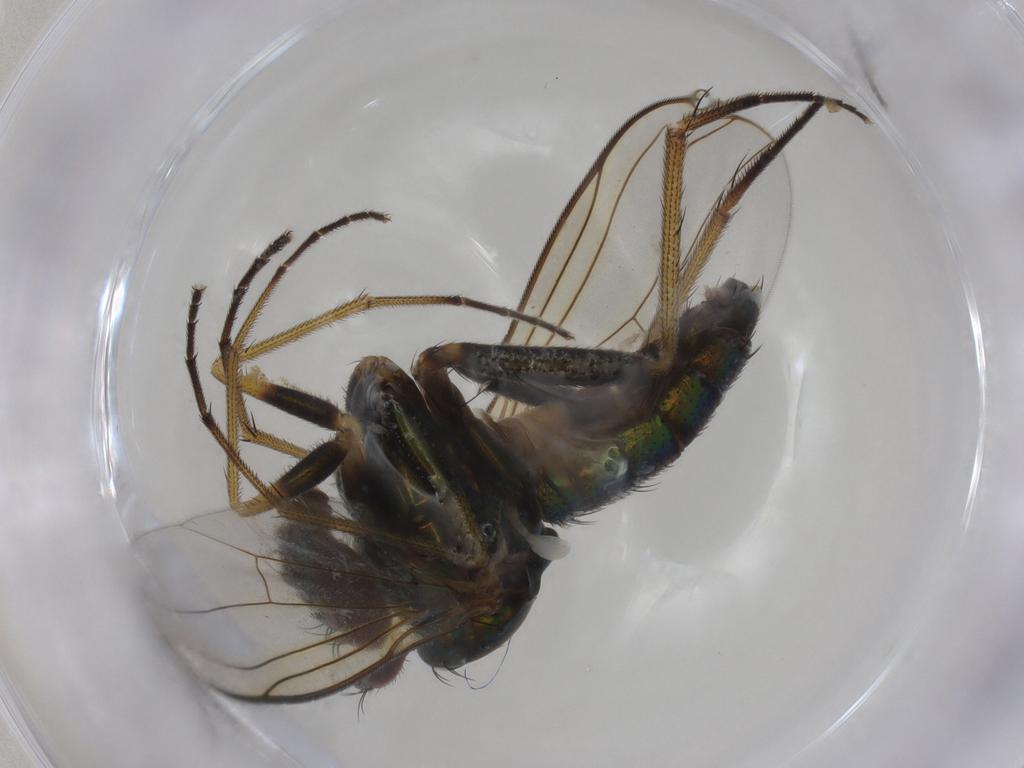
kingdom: Animalia
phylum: Arthropoda
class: Insecta
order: Diptera
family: Dolichopodidae
